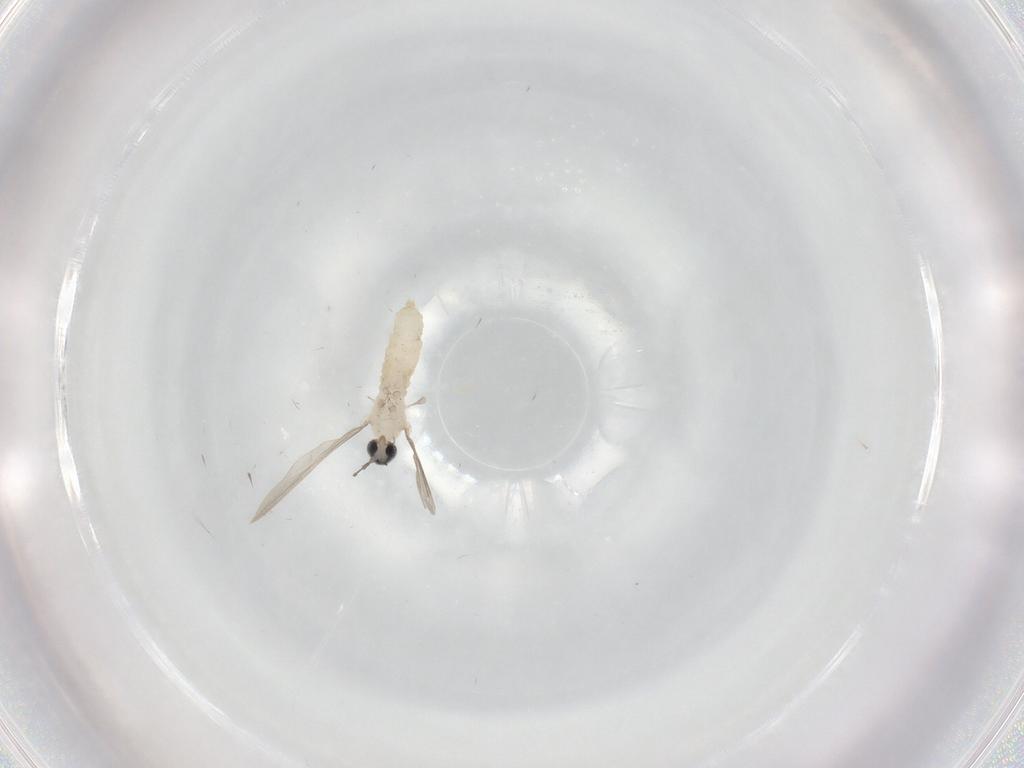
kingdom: Animalia
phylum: Arthropoda
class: Insecta
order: Diptera
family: Cecidomyiidae
